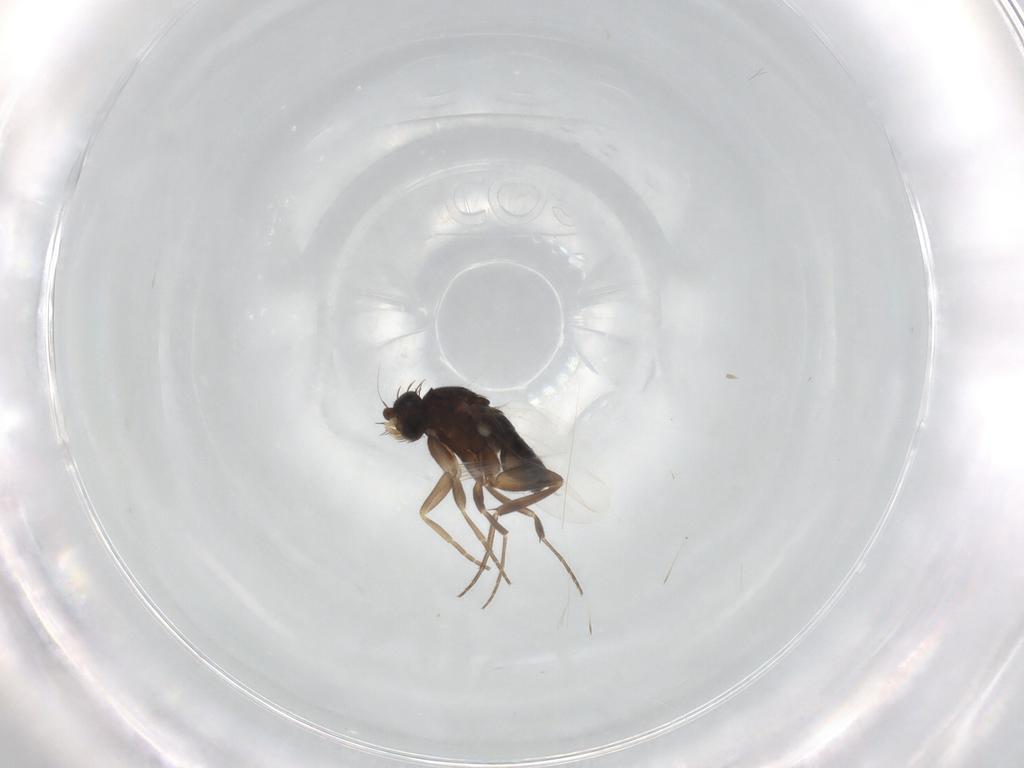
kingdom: Animalia
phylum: Arthropoda
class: Insecta
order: Diptera
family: Phoridae
